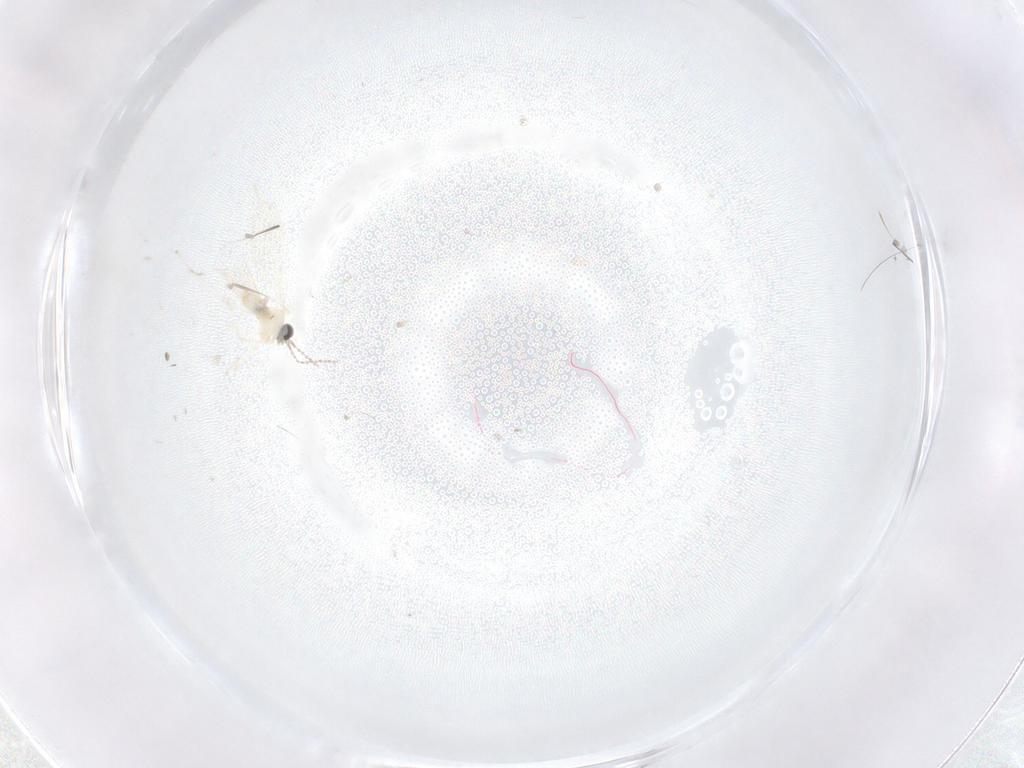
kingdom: Animalia
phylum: Arthropoda
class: Insecta
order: Diptera
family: Cecidomyiidae
